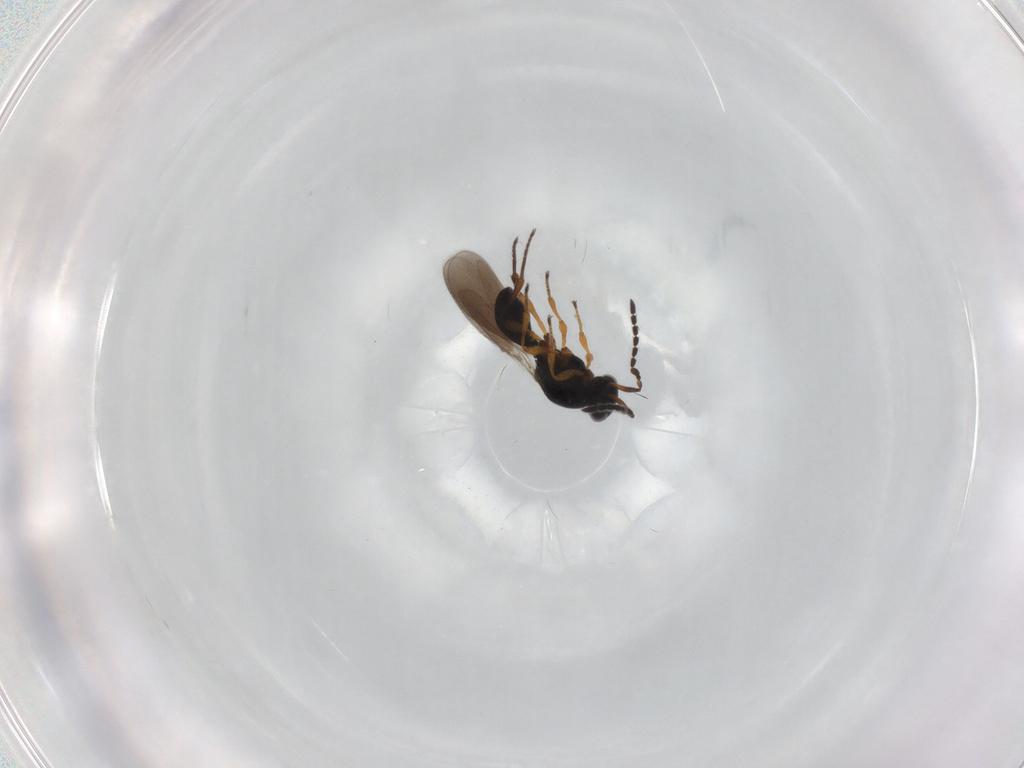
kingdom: Animalia
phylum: Arthropoda
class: Insecta
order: Hymenoptera
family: Platygastridae
